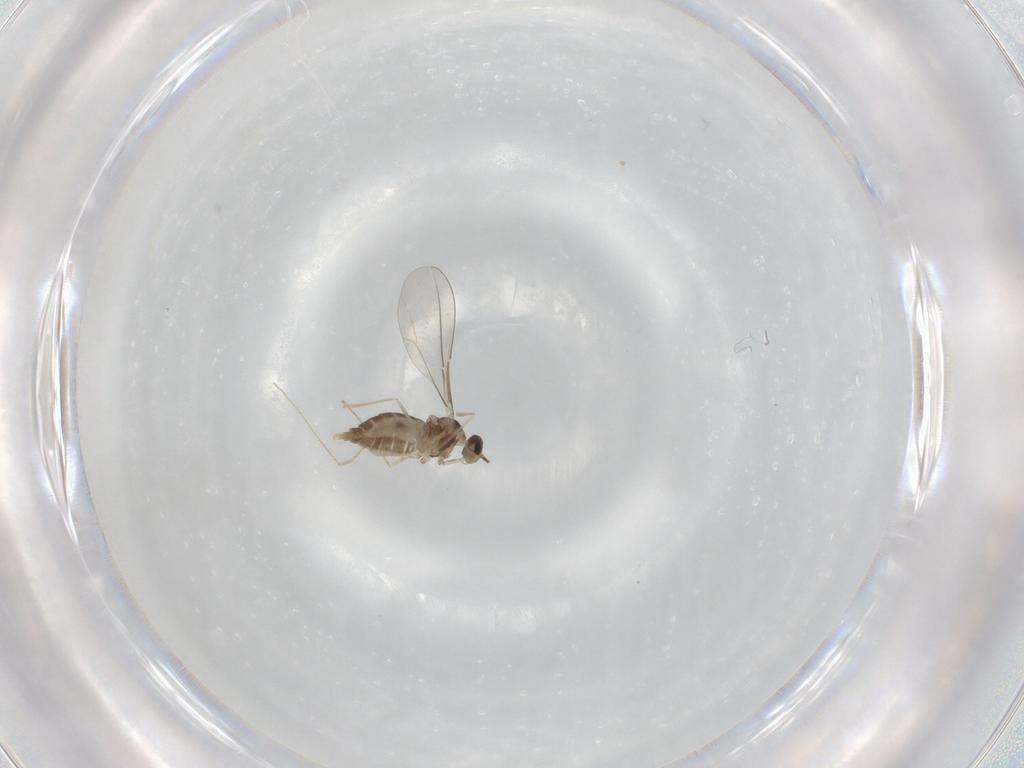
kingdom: Animalia
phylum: Arthropoda
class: Insecta
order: Diptera
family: Cecidomyiidae
